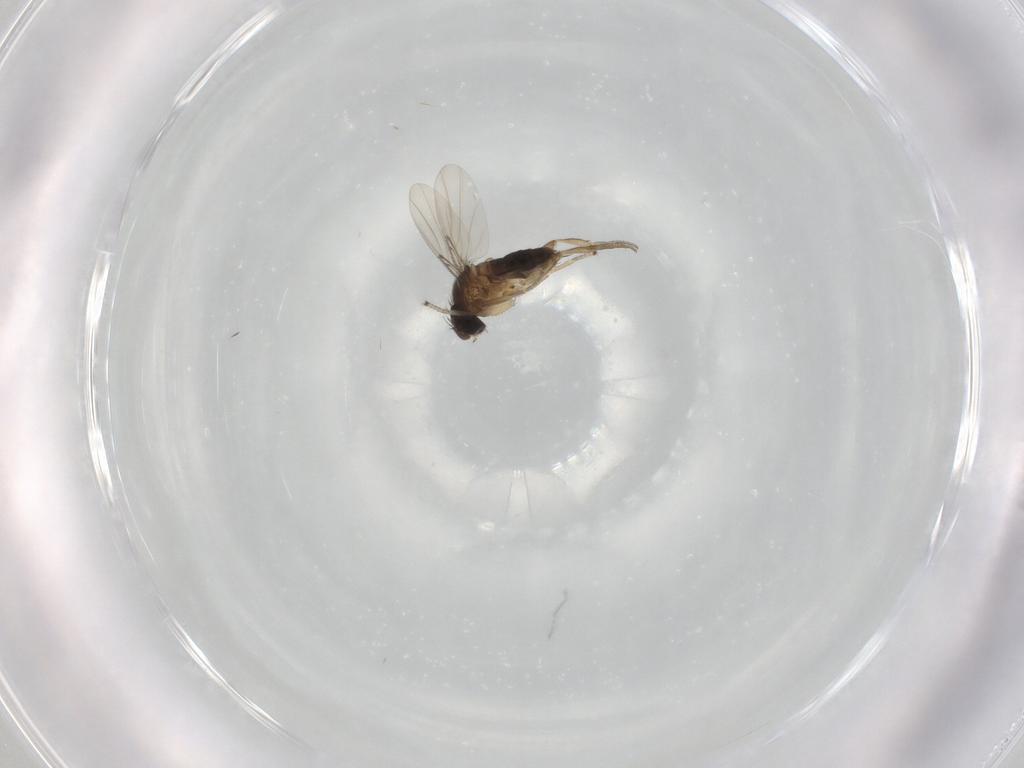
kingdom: Animalia
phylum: Arthropoda
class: Insecta
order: Diptera
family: Phoridae
